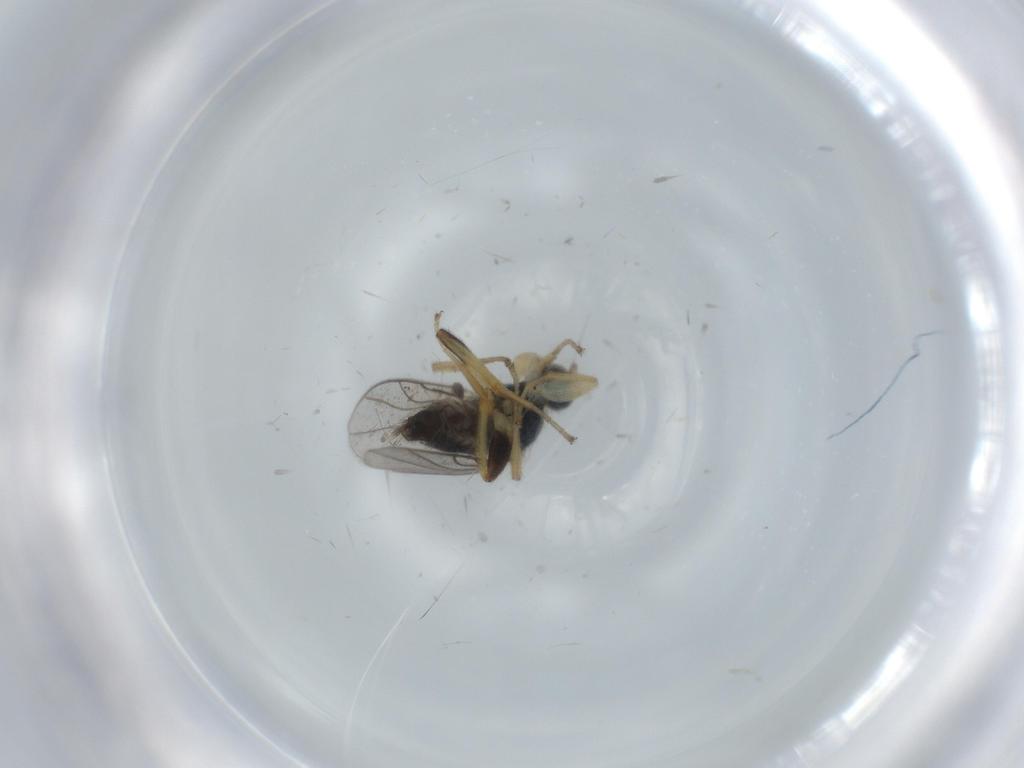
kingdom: Animalia
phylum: Arthropoda
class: Insecta
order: Diptera
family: Hybotidae
